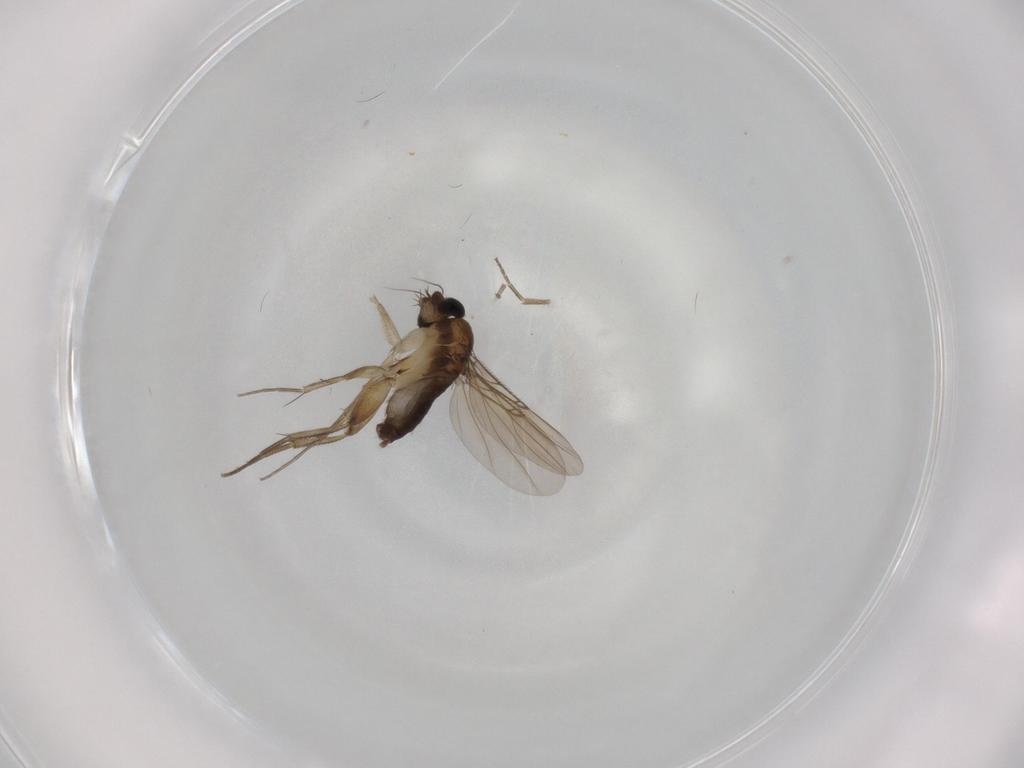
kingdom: Animalia
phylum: Arthropoda
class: Insecta
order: Diptera
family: Phoridae
